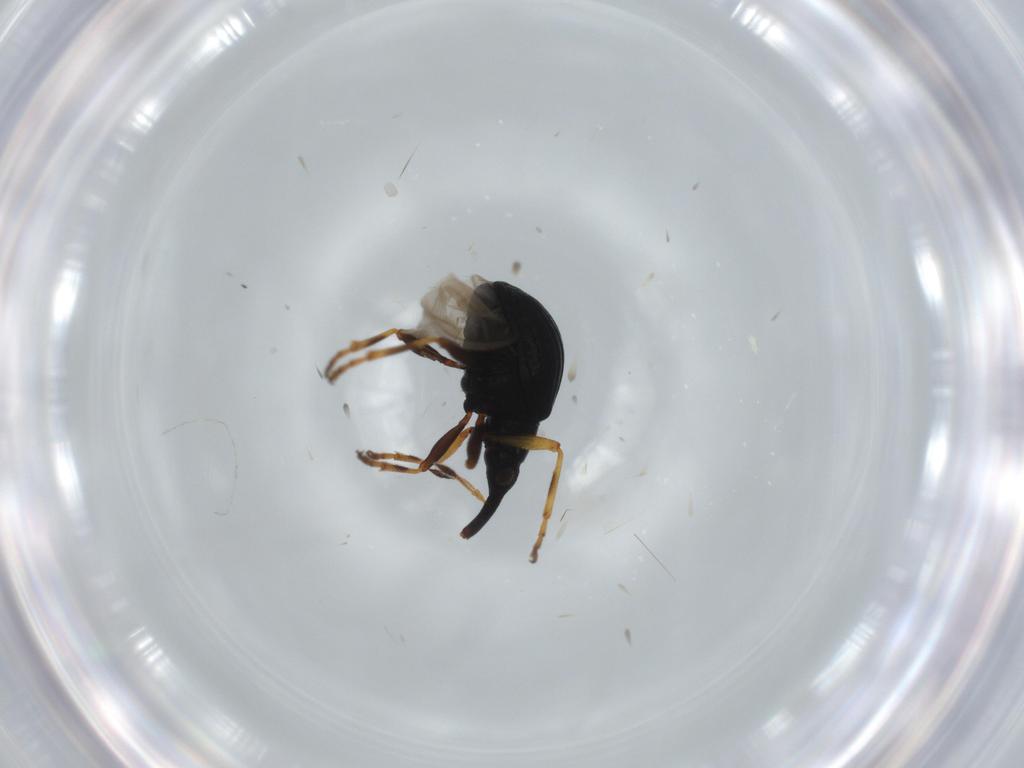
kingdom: Animalia
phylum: Arthropoda
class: Insecta
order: Coleoptera
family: Brentidae
